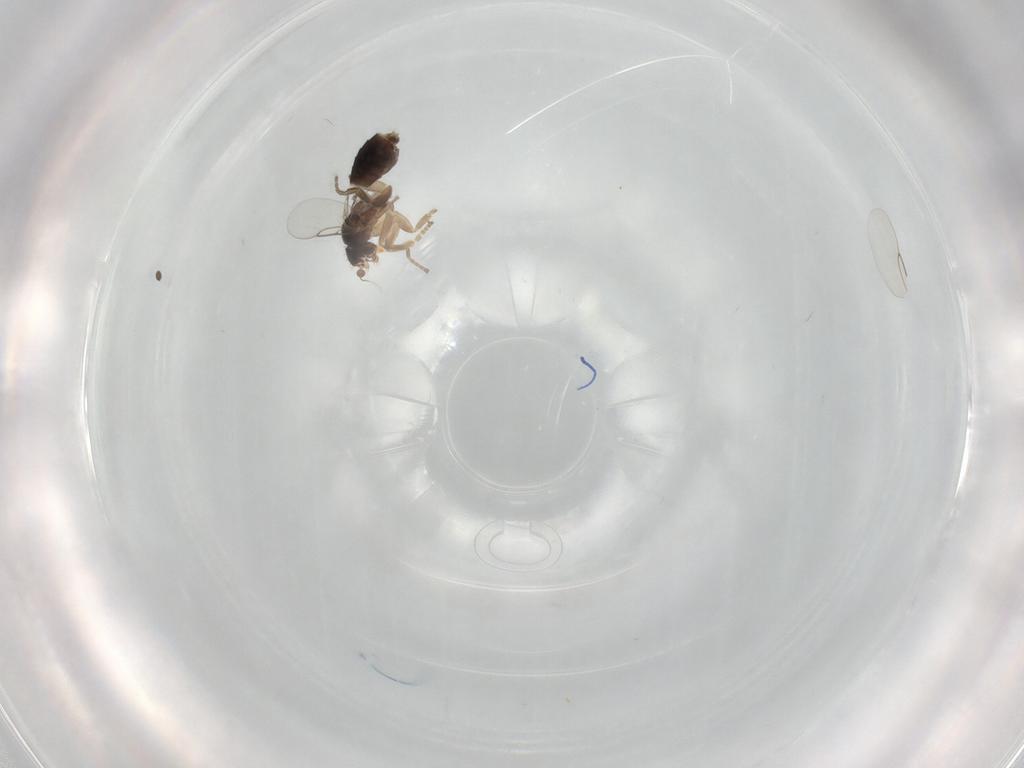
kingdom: Animalia
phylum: Arthropoda
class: Insecta
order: Diptera
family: Phoridae
